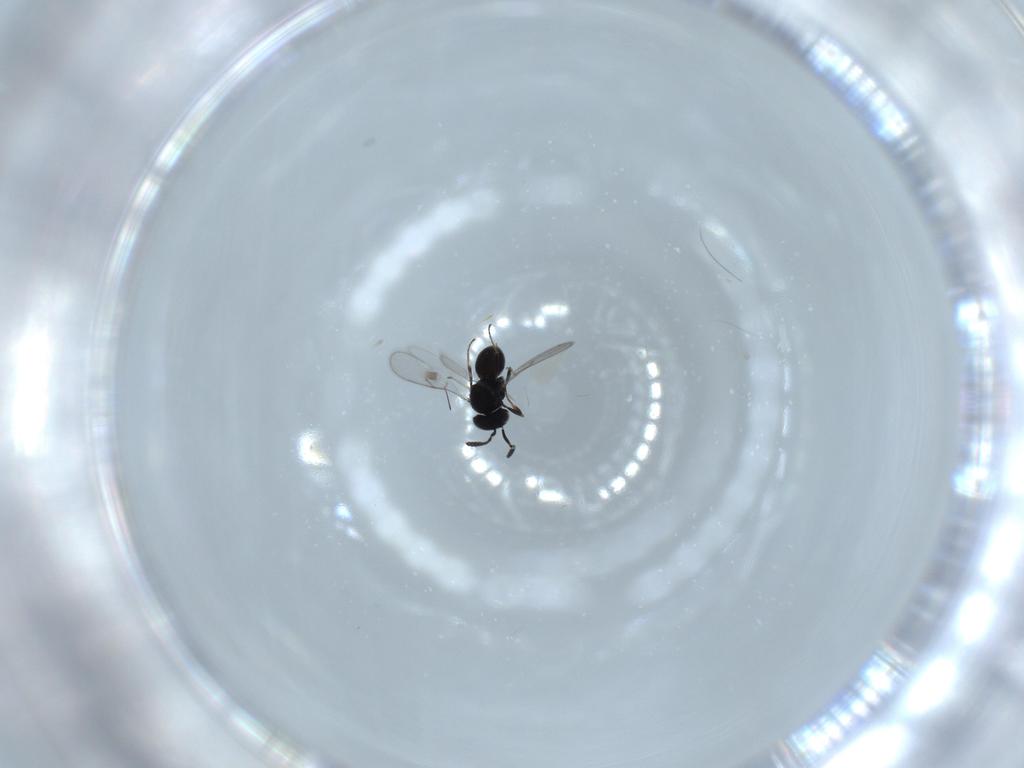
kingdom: Animalia
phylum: Arthropoda
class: Insecta
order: Hymenoptera
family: Scelionidae
